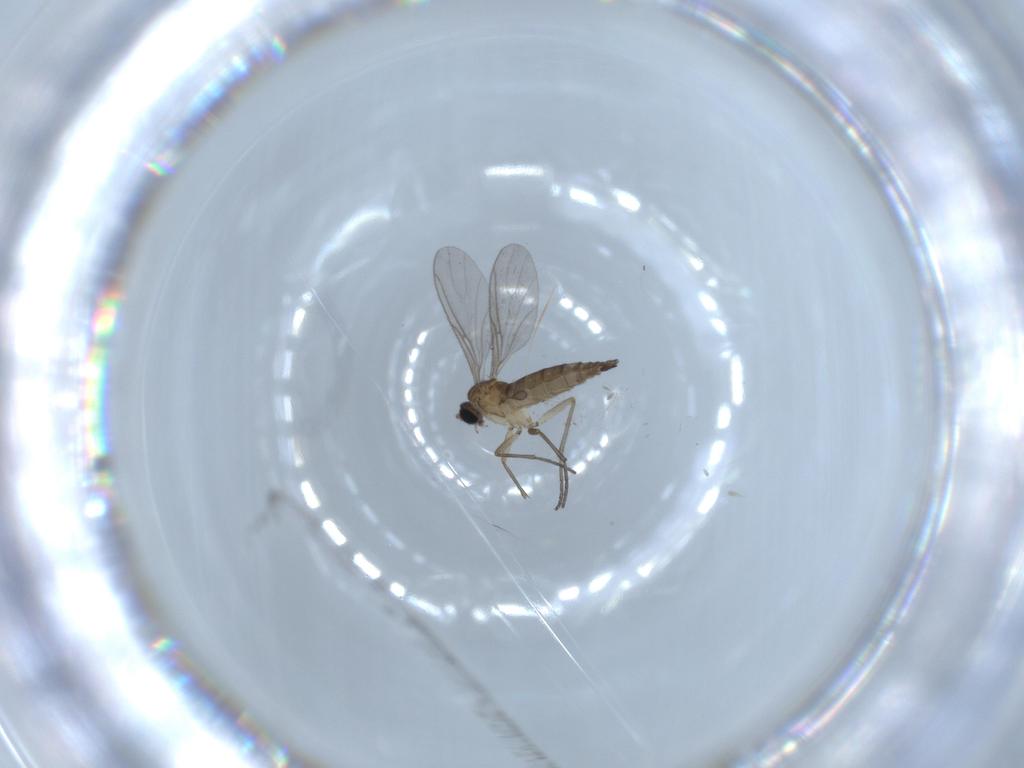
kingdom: Animalia
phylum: Arthropoda
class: Insecta
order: Diptera
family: Sciaridae
